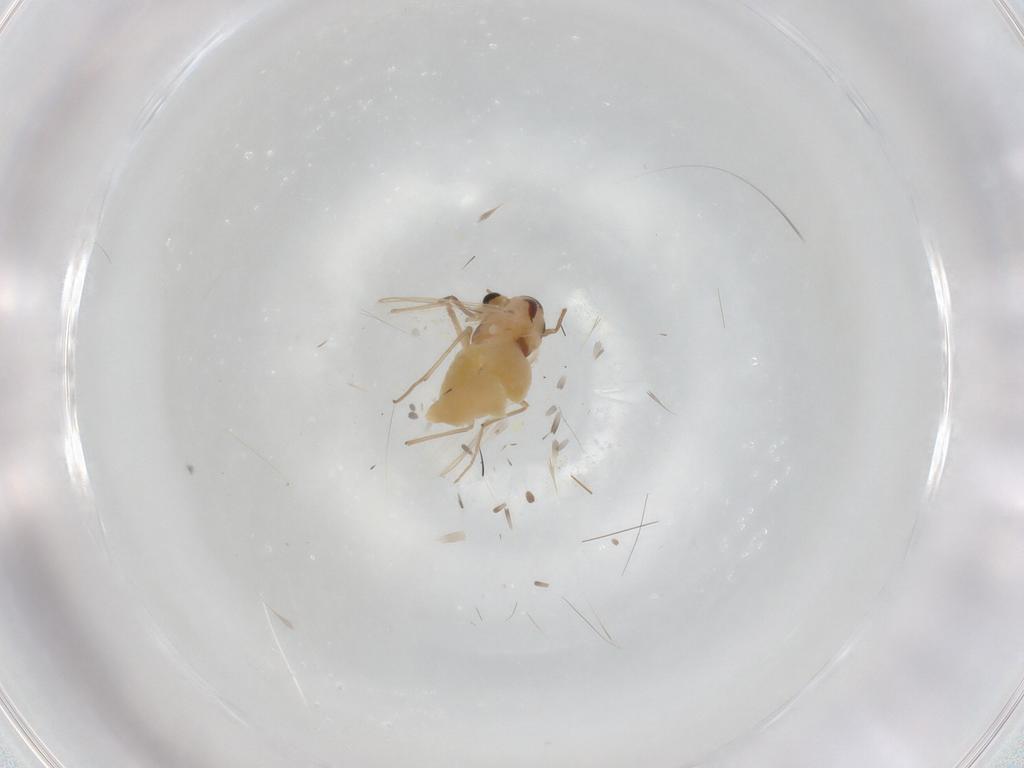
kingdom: Animalia
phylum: Arthropoda
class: Insecta
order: Diptera
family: Chironomidae
